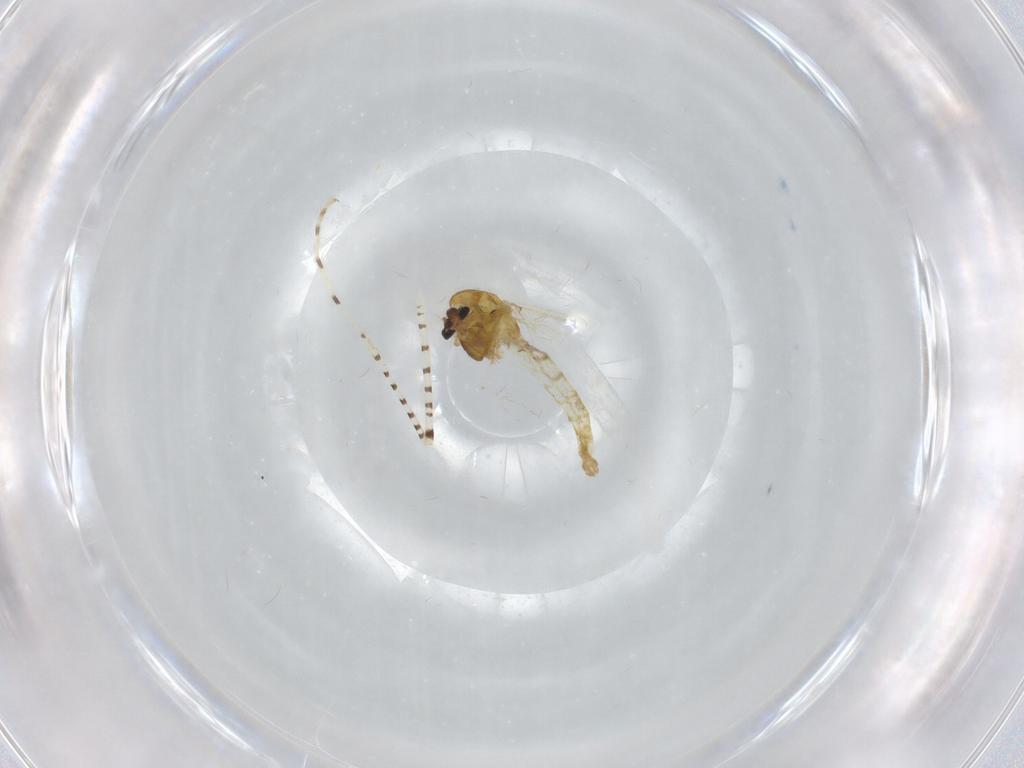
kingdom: Animalia
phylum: Arthropoda
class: Insecta
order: Diptera
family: Chaoboridae
